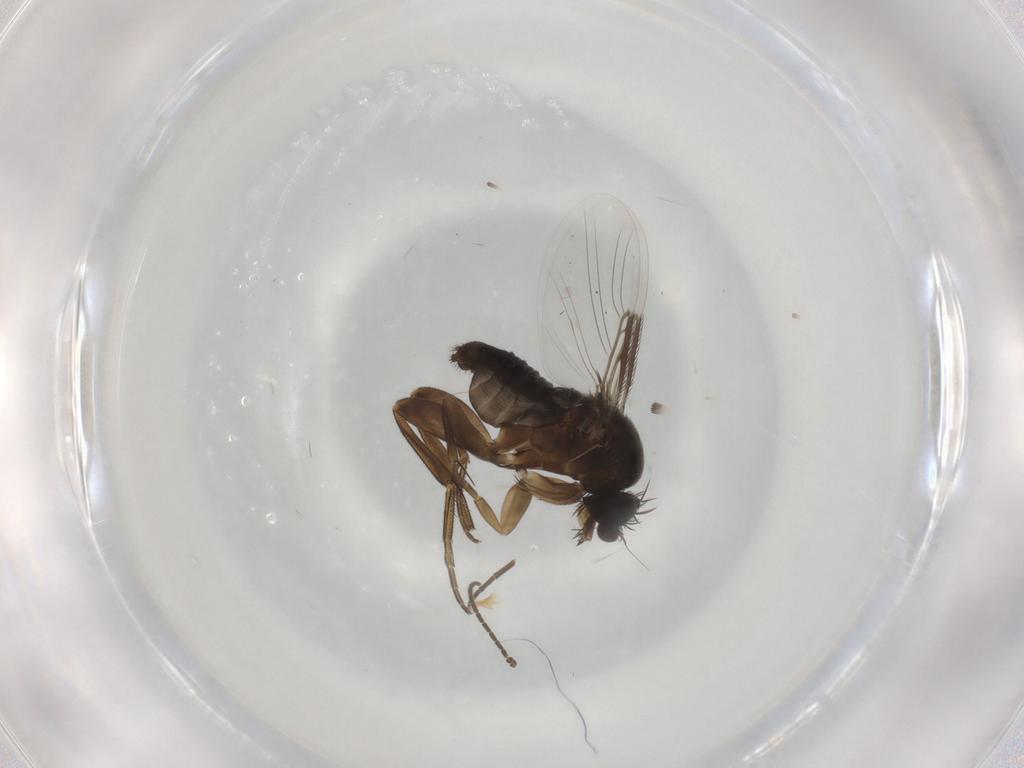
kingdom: Animalia
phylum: Arthropoda
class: Insecta
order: Diptera
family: Phoridae
